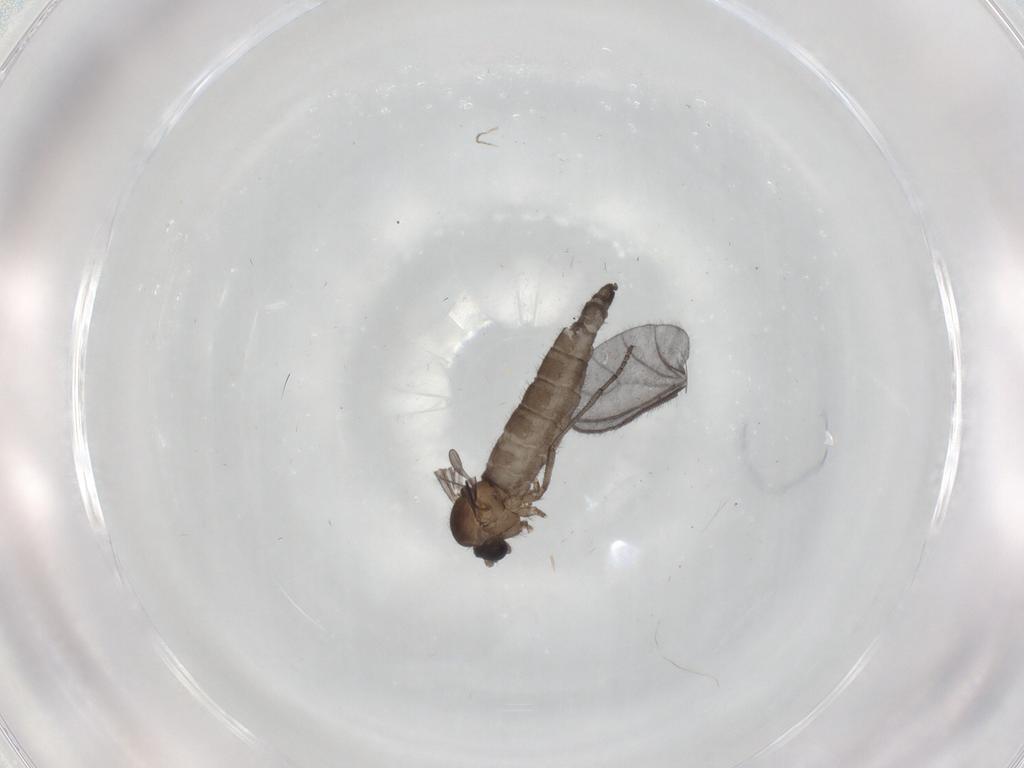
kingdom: Animalia
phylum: Arthropoda
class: Insecta
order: Diptera
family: Sciaridae
